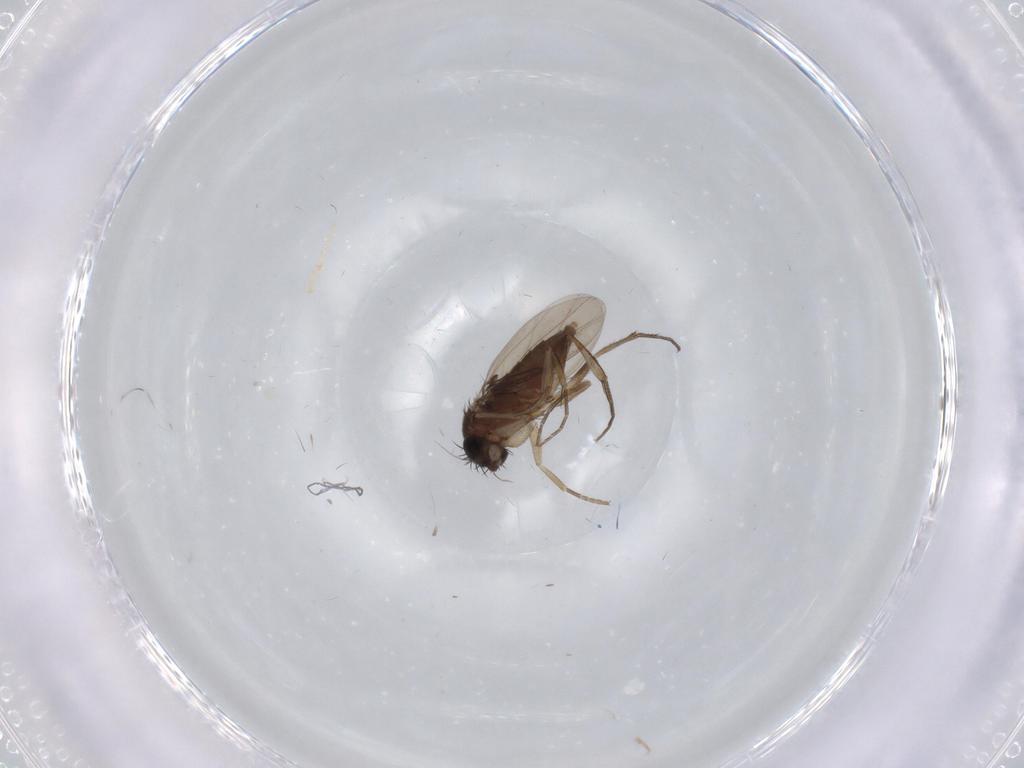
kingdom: Animalia
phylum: Arthropoda
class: Insecta
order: Diptera
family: Phoridae
